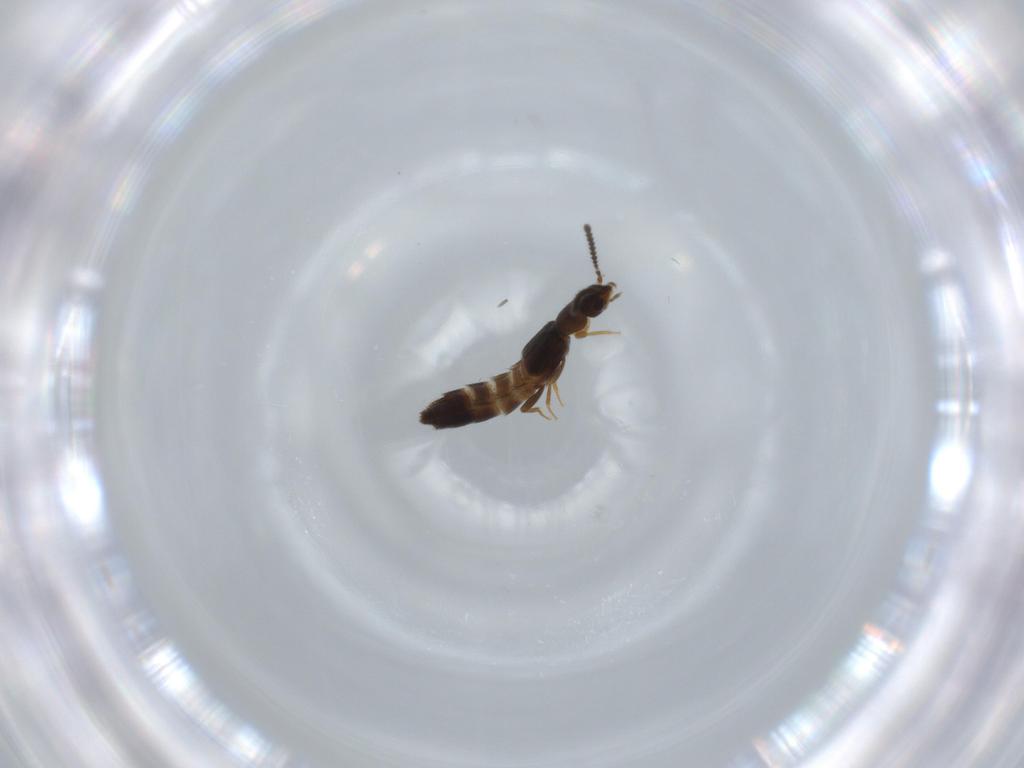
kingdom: Animalia
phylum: Arthropoda
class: Insecta
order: Coleoptera
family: Staphylinidae
